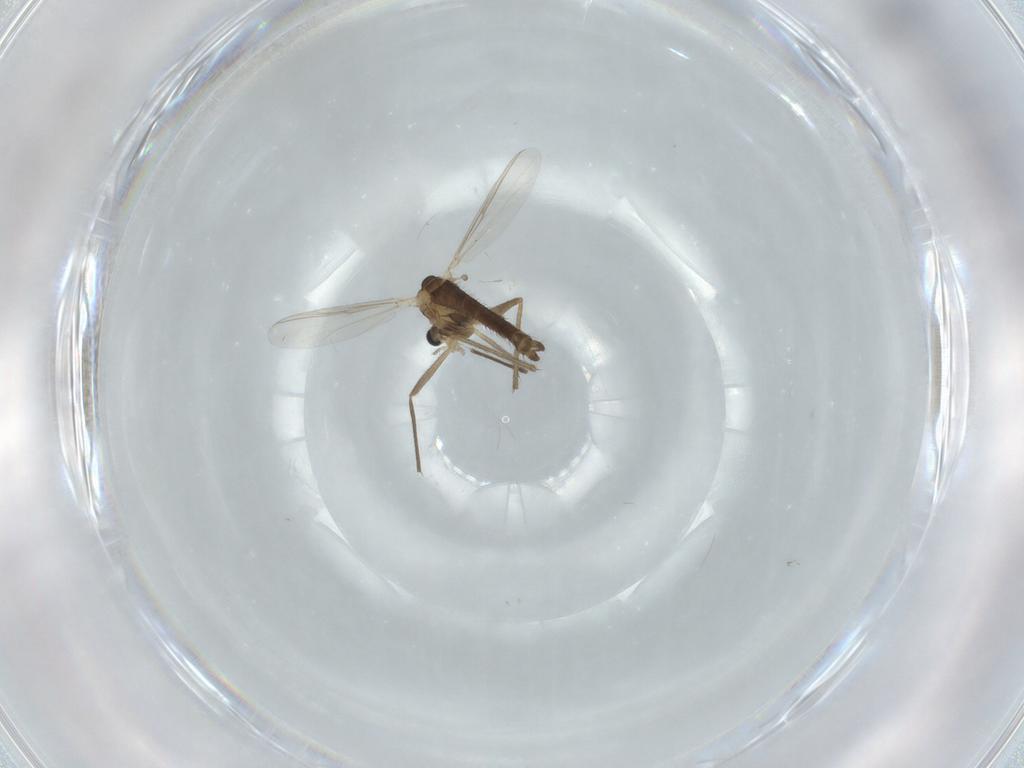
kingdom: Animalia
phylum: Arthropoda
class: Insecta
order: Diptera
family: Chironomidae
